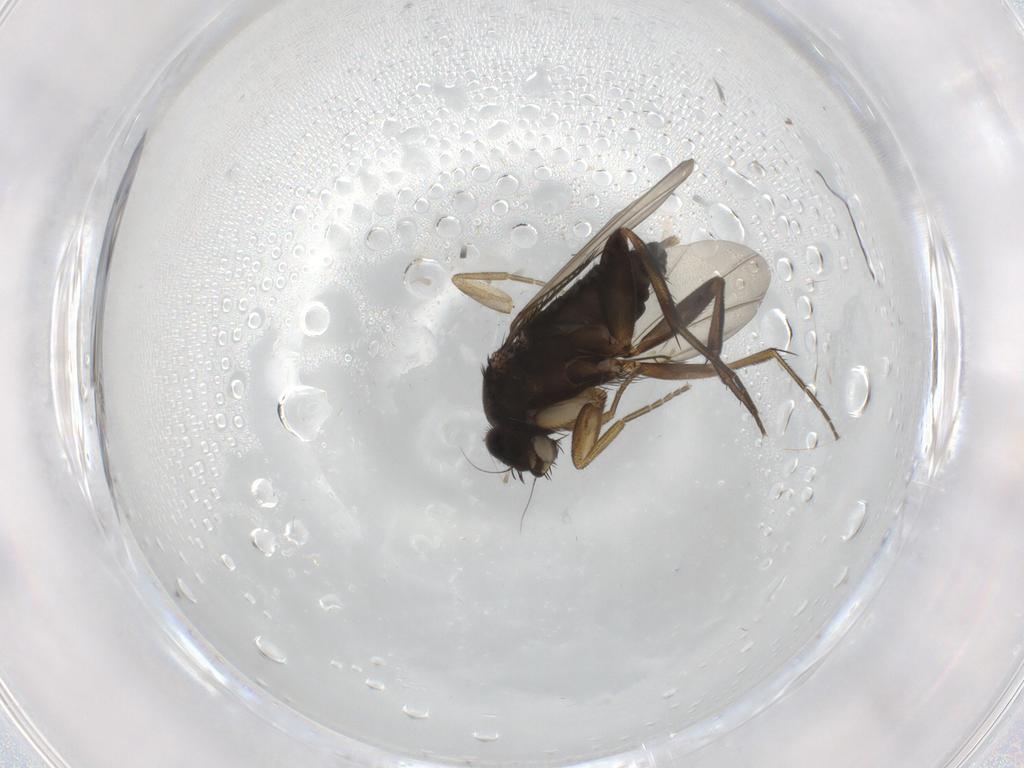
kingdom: Animalia
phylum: Arthropoda
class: Insecta
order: Diptera
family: Phoridae
